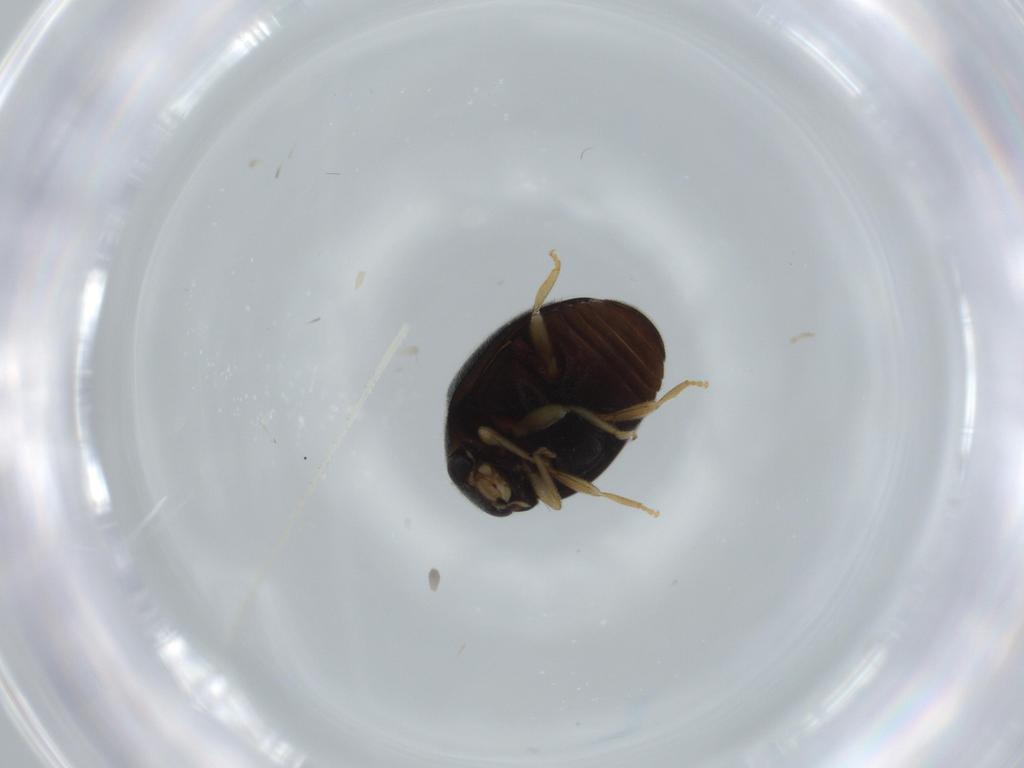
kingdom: Animalia
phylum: Arthropoda
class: Insecta
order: Coleoptera
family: Coccinellidae
